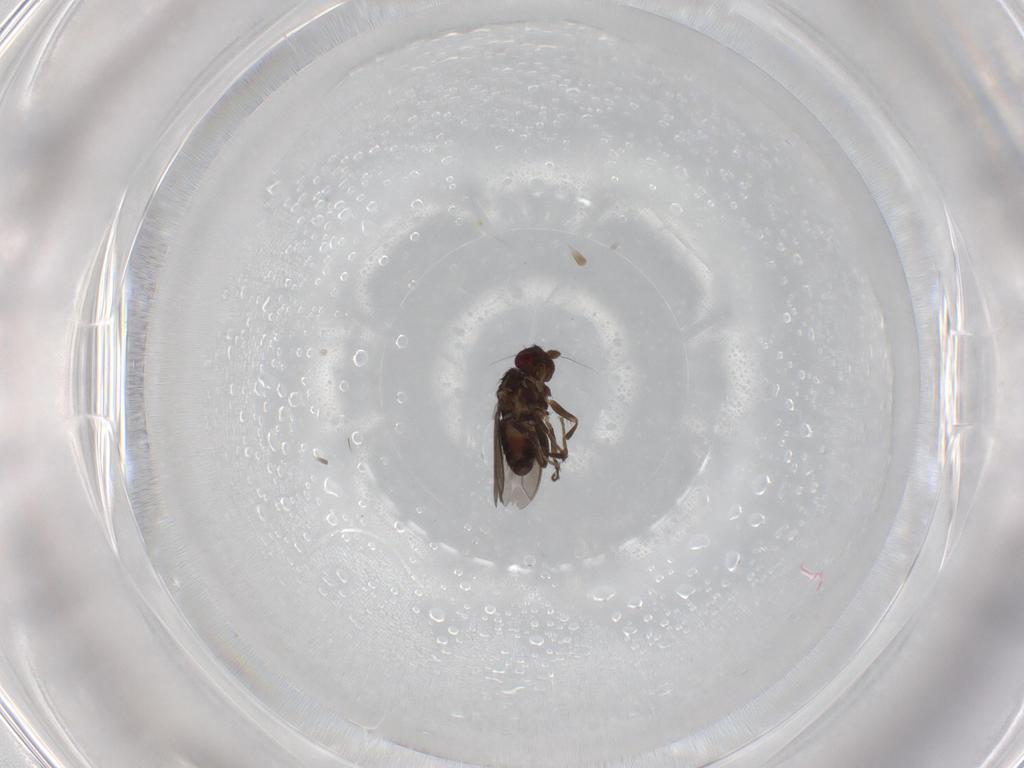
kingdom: Animalia
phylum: Arthropoda
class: Insecta
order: Diptera
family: Sphaeroceridae
